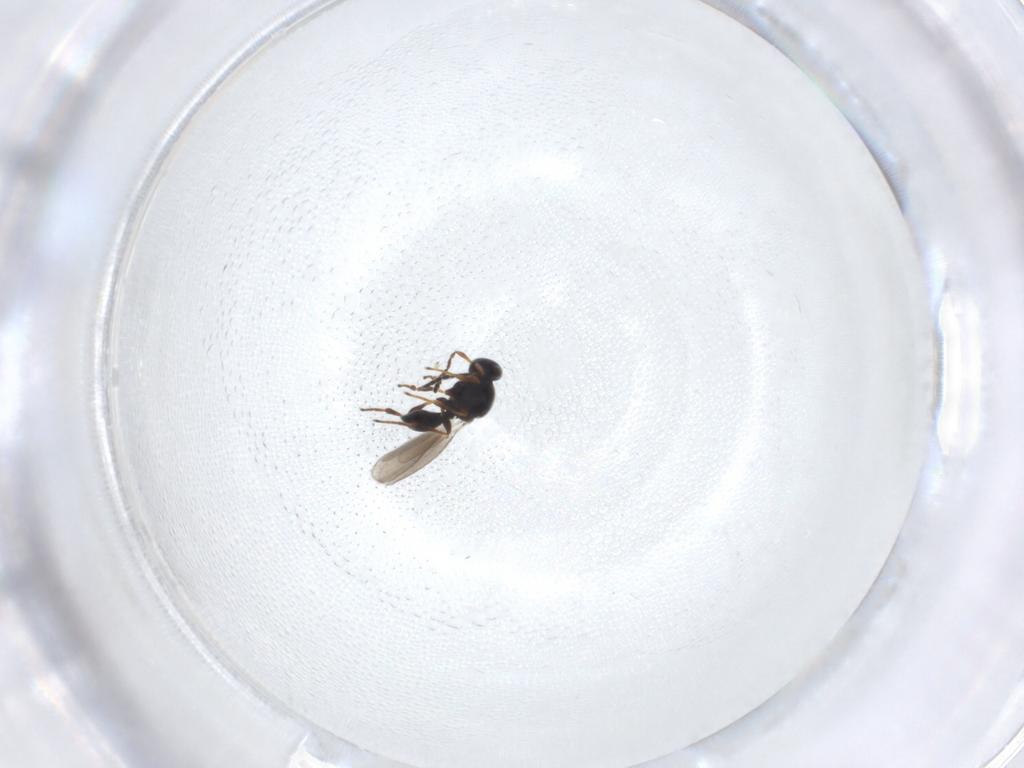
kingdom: Animalia
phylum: Arthropoda
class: Insecta
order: Hymenoptera
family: Platygastridae
